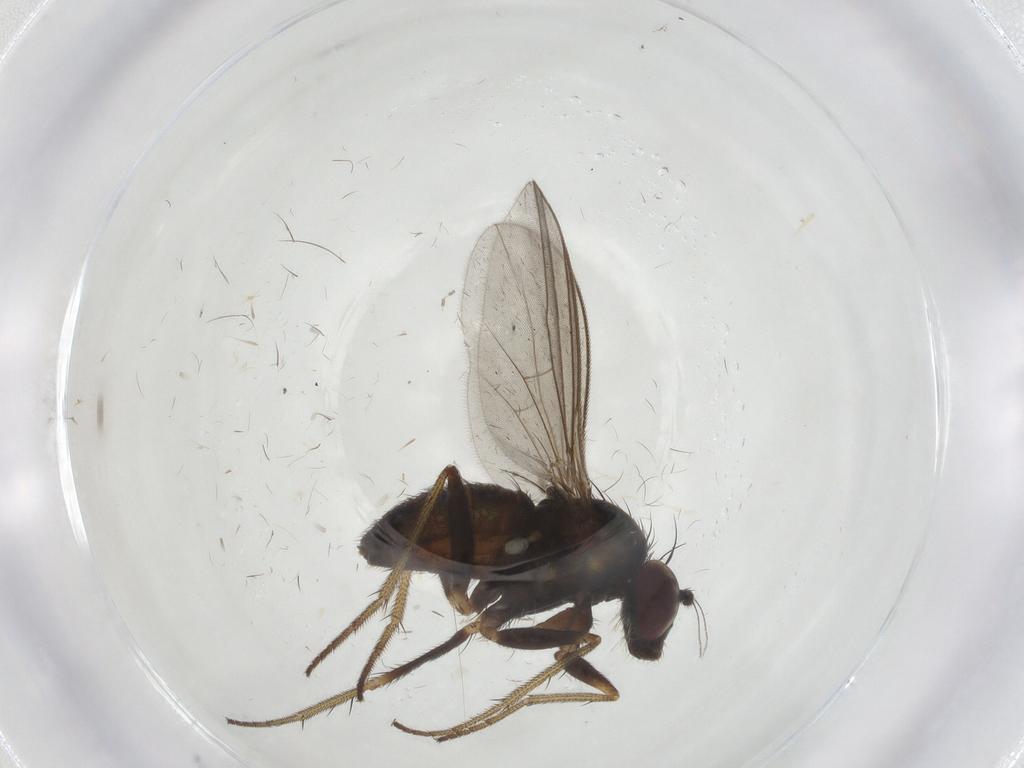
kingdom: Animalia
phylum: Arthropoda
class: Insecta
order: Diptera
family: Cecidomyiidae
